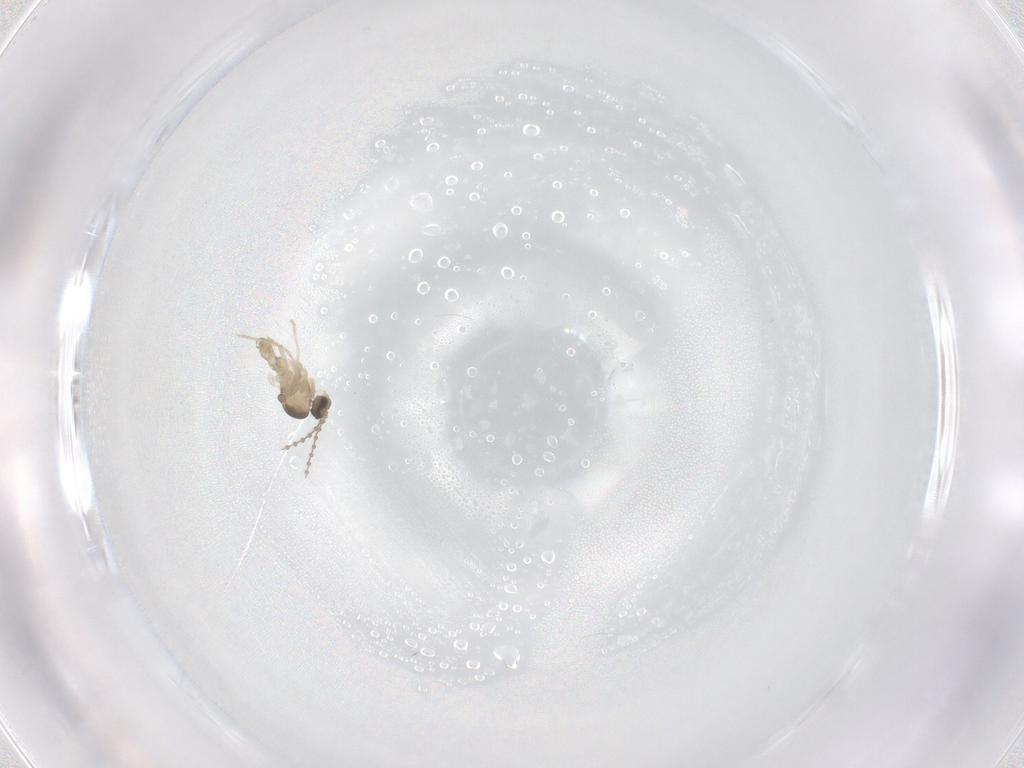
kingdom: Animalia
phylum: Arthropoda
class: Insecta
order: Diptera
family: Cecidomyiidae
